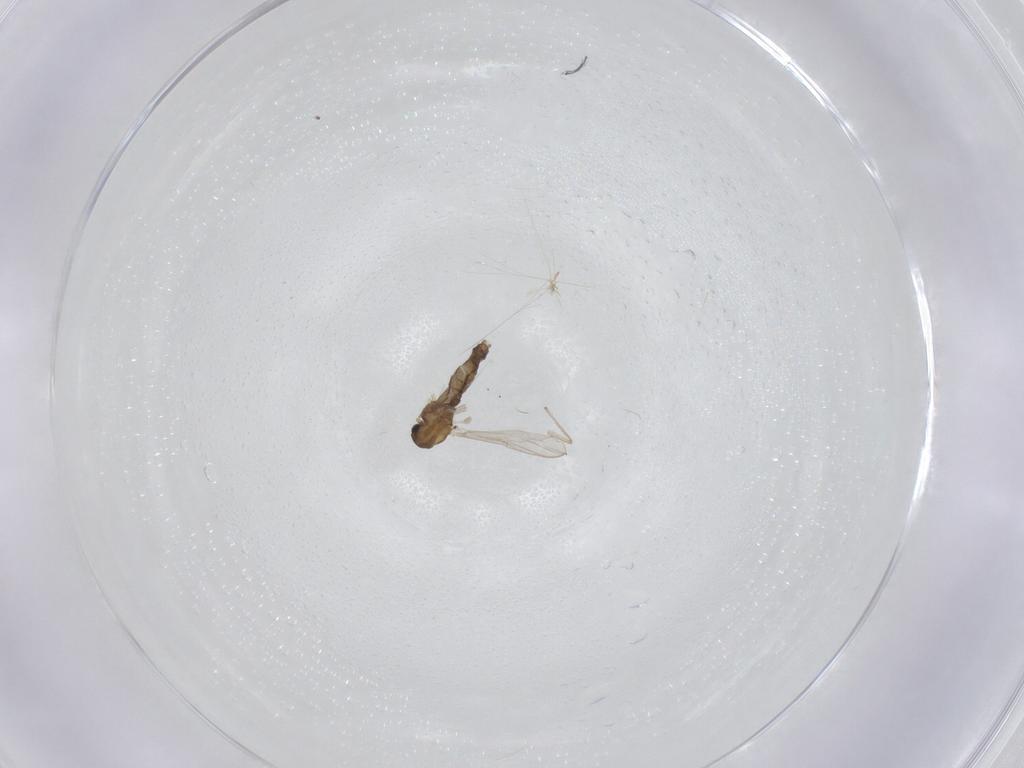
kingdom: Animalia
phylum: Arthropoda
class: Insecta
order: Diptera
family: Chironomidae
